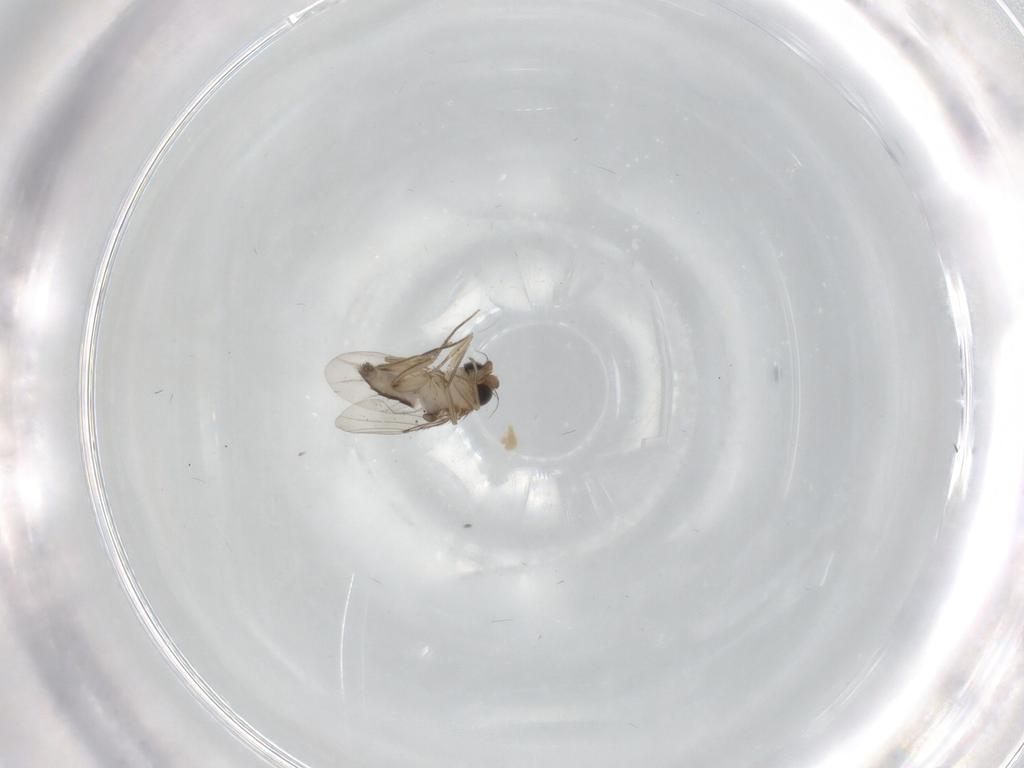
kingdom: Animalia
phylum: Arthropoda
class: Insecta
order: Diptera
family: Phoridae
